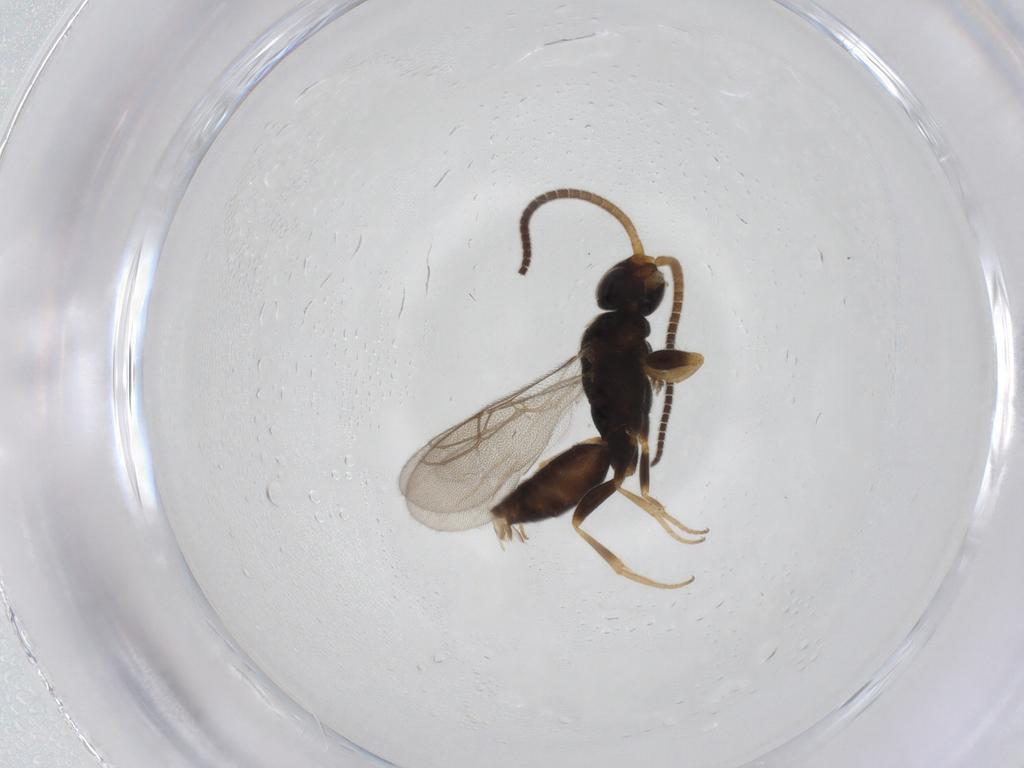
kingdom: Animalia
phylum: Arthropoda
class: Insecta
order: Hymenoptera
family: Sclerogibbidae
